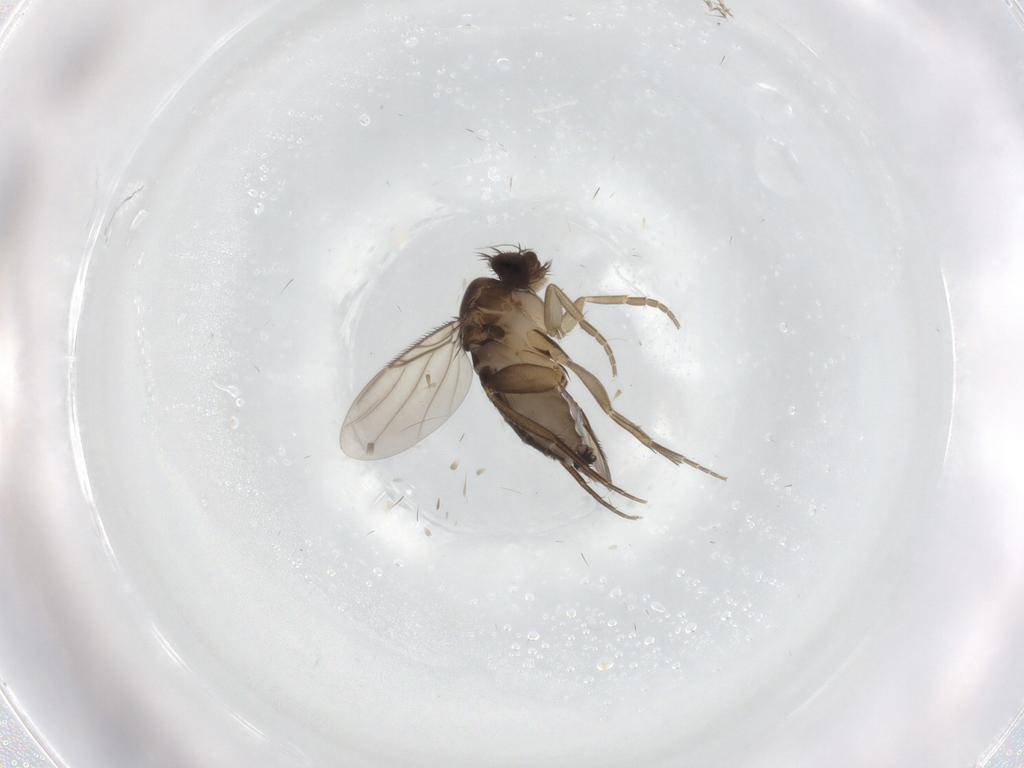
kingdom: Animalia
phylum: Arthropoda
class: Insecta
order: Diptera
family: Phoridae
